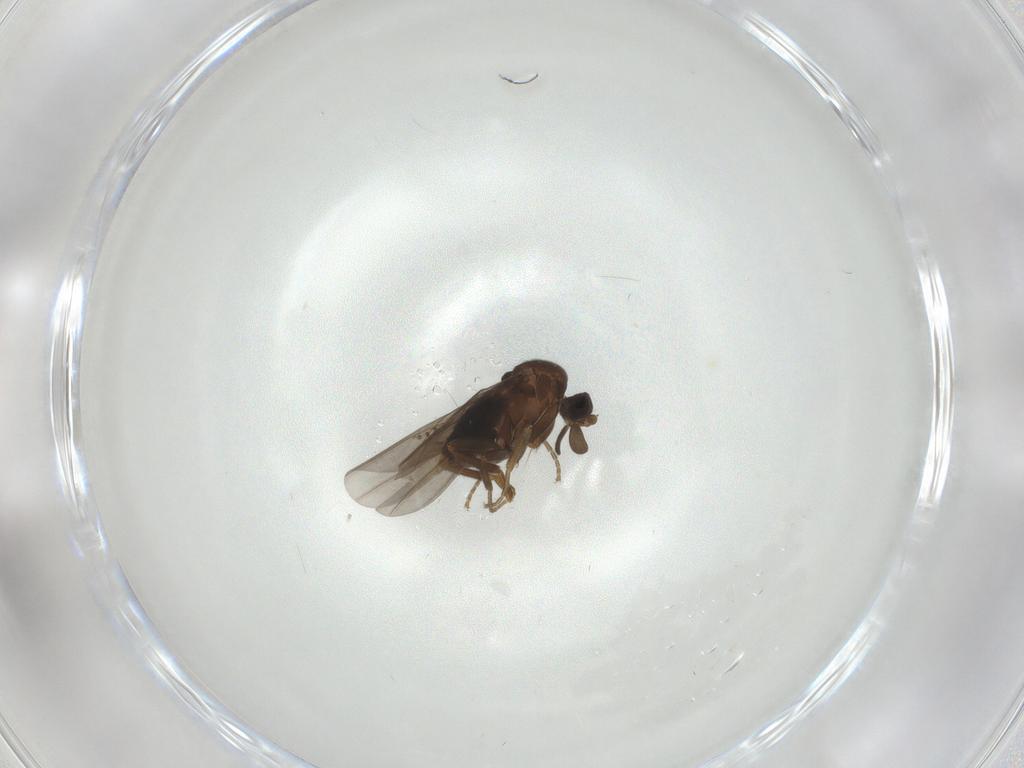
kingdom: Animalia
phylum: Arthropoda
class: Insecta
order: Diptera
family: Phoridae
